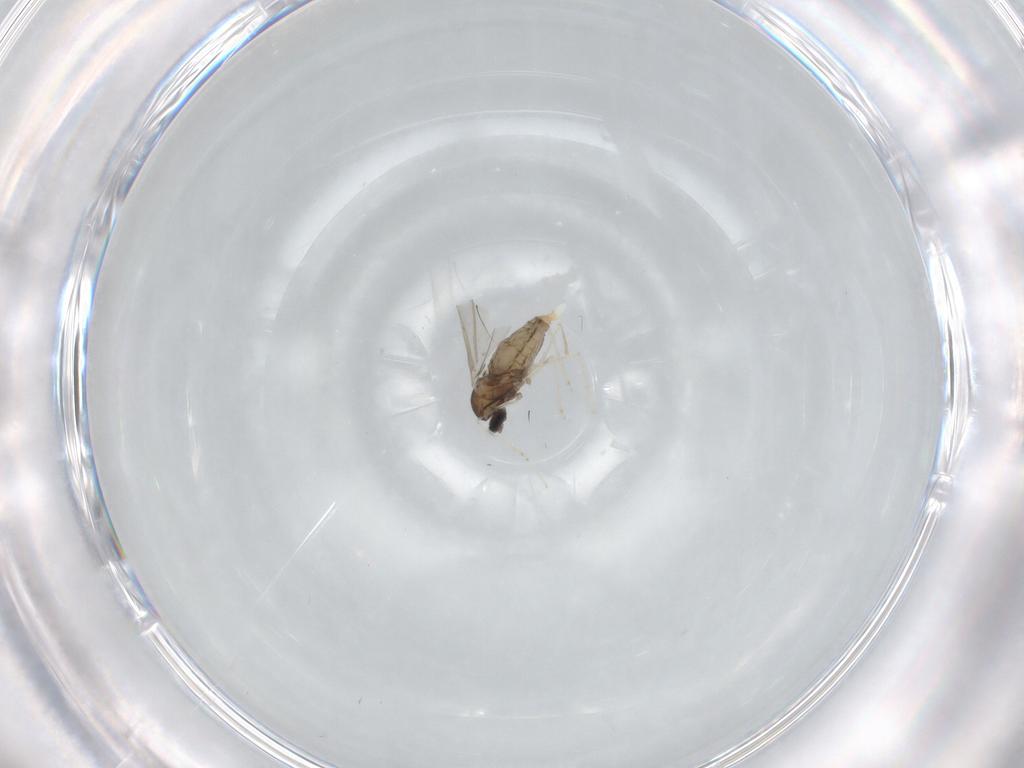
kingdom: Animalia
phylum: Arthropoda
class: Insecta
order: Diptera
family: Cecidomyiidae
